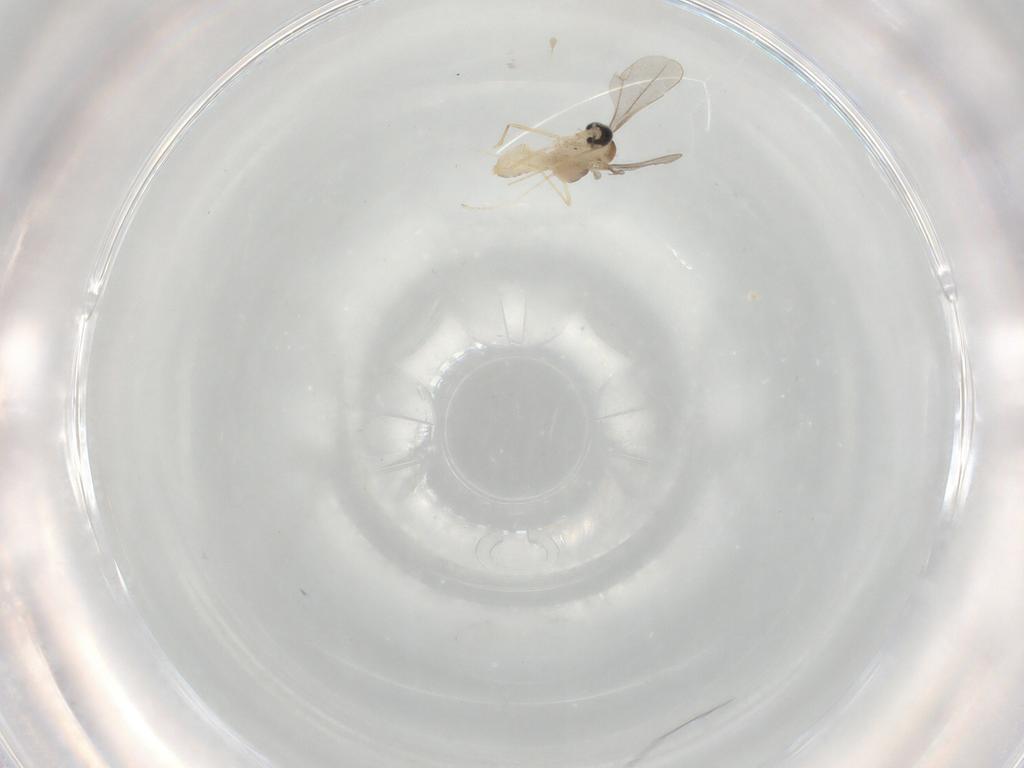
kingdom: Animalia
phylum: Arthropoda
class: Insecta
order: Diptera
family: Cecidomyiidae
